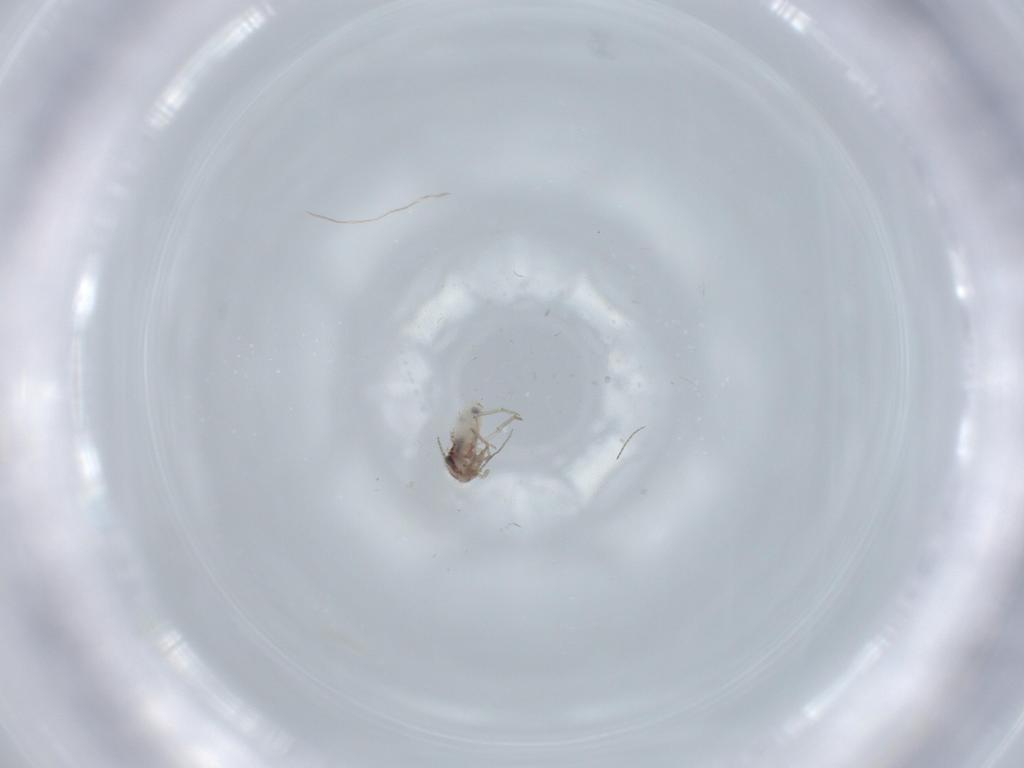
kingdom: Animalia
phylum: Arthropoda
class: Insecta
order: Psocodea
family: Lepidopsocidae
